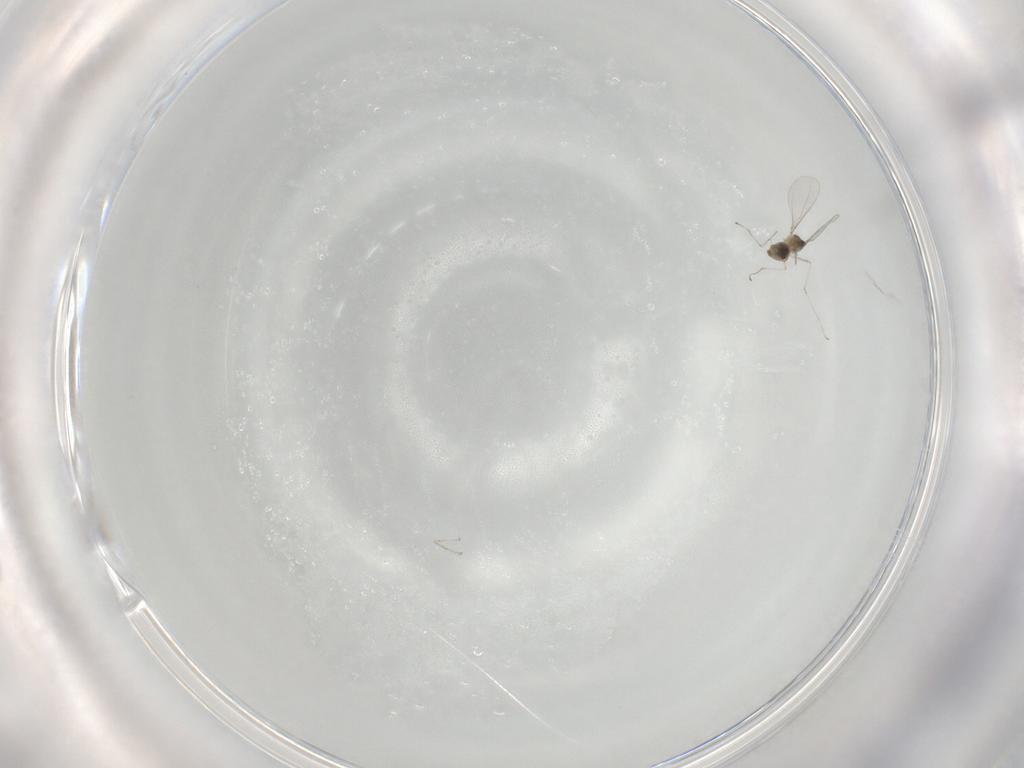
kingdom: Animalia
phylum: Arthropoda
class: Insecta
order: Diptera
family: Cecidomyiidae
